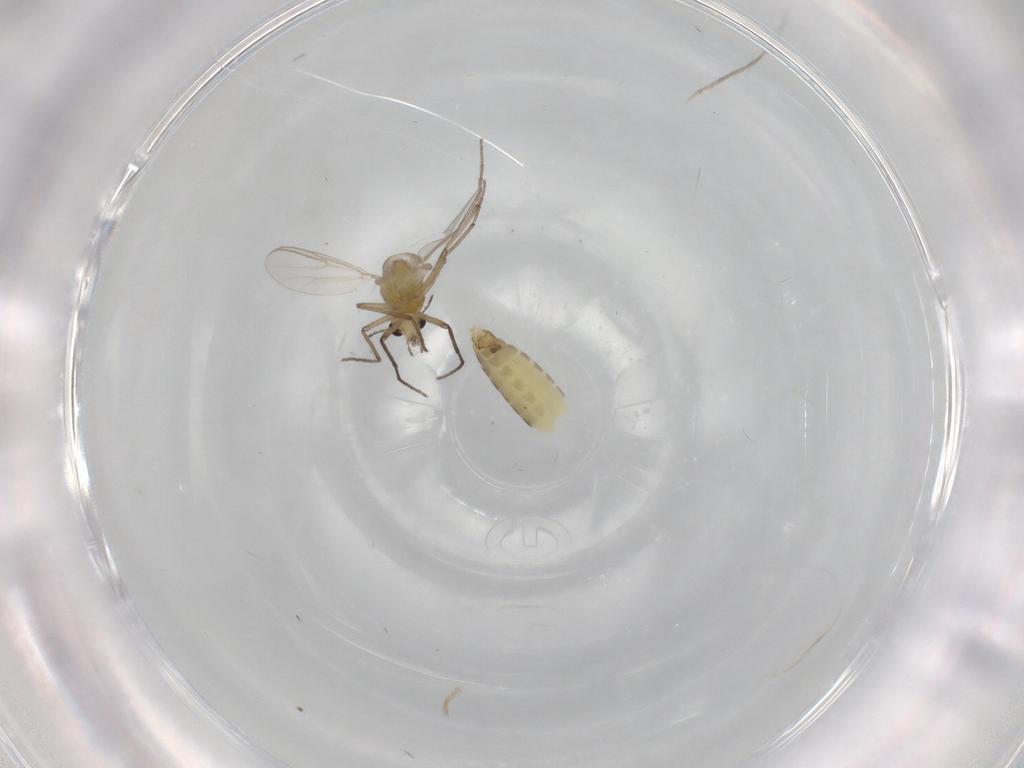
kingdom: Animalia
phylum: Arthropoda
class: Insecta
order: Diptera
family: Chironomidae
